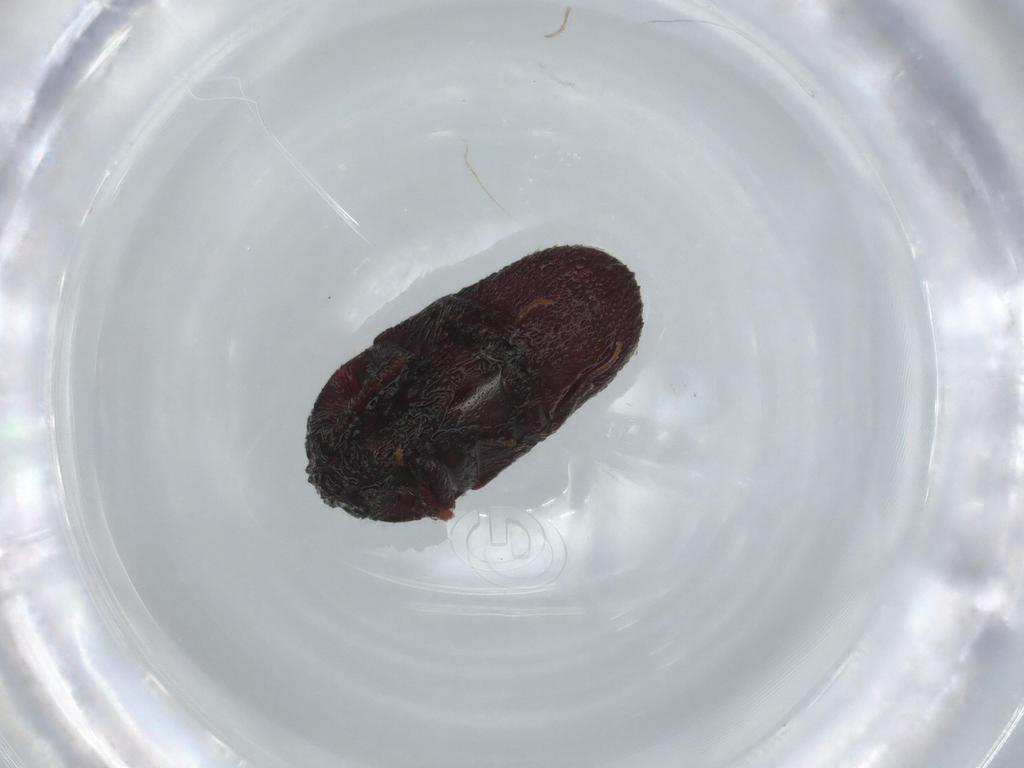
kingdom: Animalia
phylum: Arthropoda
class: Insecta
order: Coleoptera
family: Throscidae
